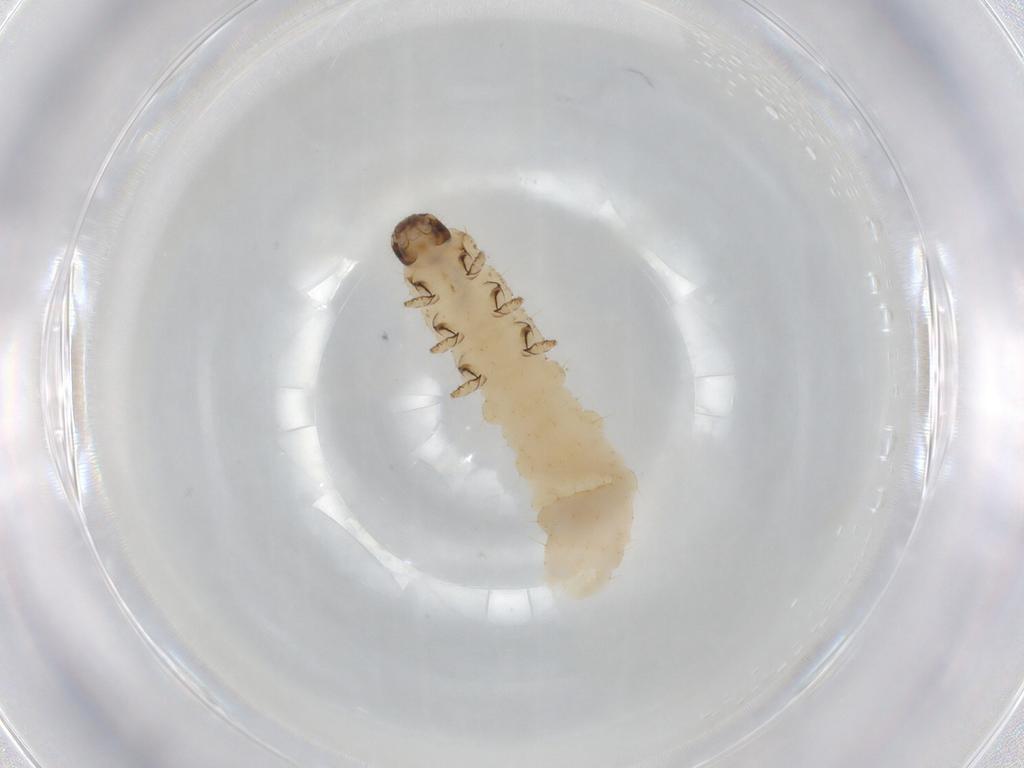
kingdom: Animalia
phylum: Arthropoda
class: Insecta
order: Coleoptera
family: Chrysomelidae
